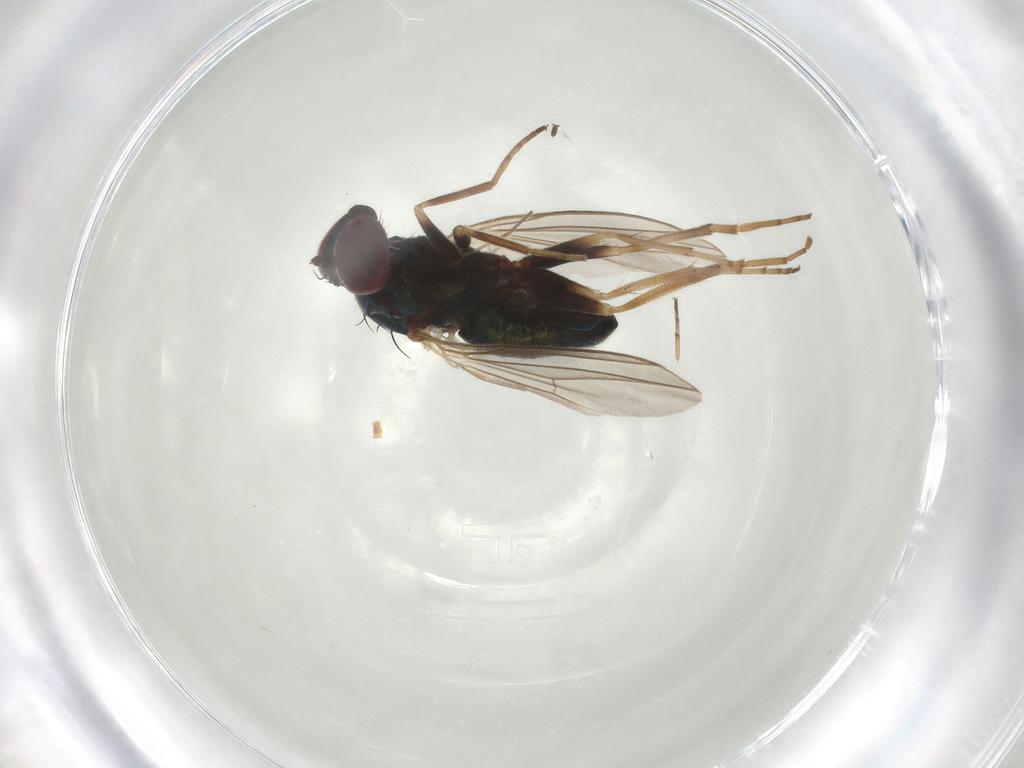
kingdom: Animalia
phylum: Arthropoda
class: Insecta
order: Diptera
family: Dolichopodidae
